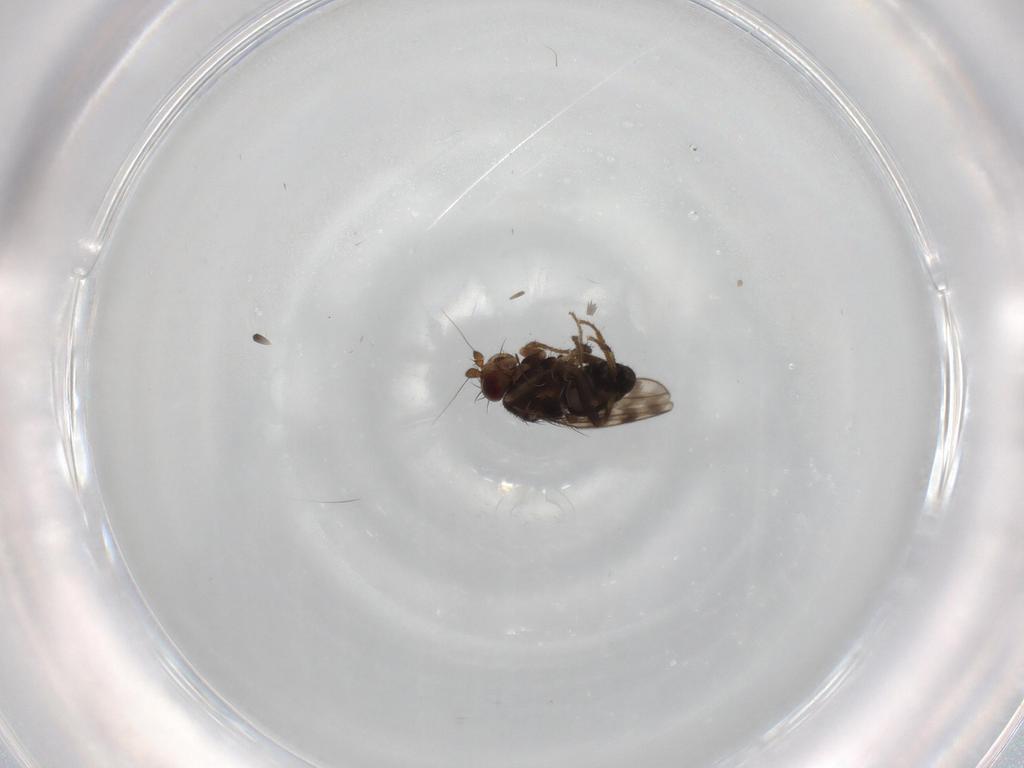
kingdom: Animalia
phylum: Arthropoda
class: Insecta
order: Diptera
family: Sphaeroceridae
